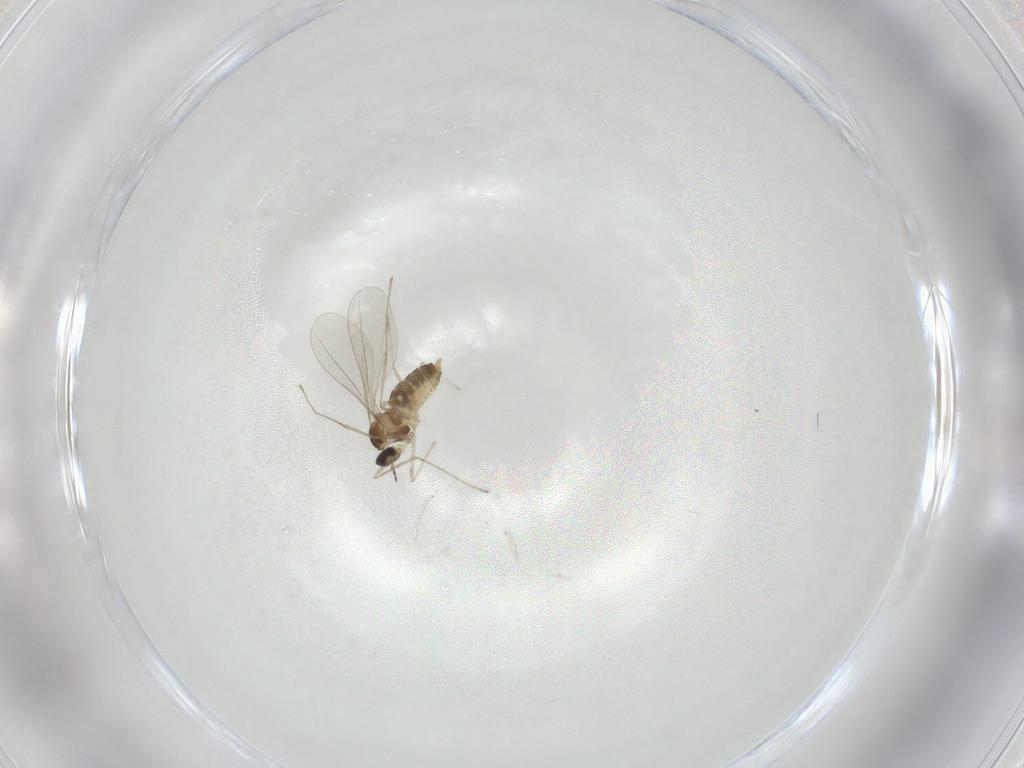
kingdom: Animalia
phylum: Arthropoda
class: Insecta
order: Diptera
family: Cecidomyiidae
